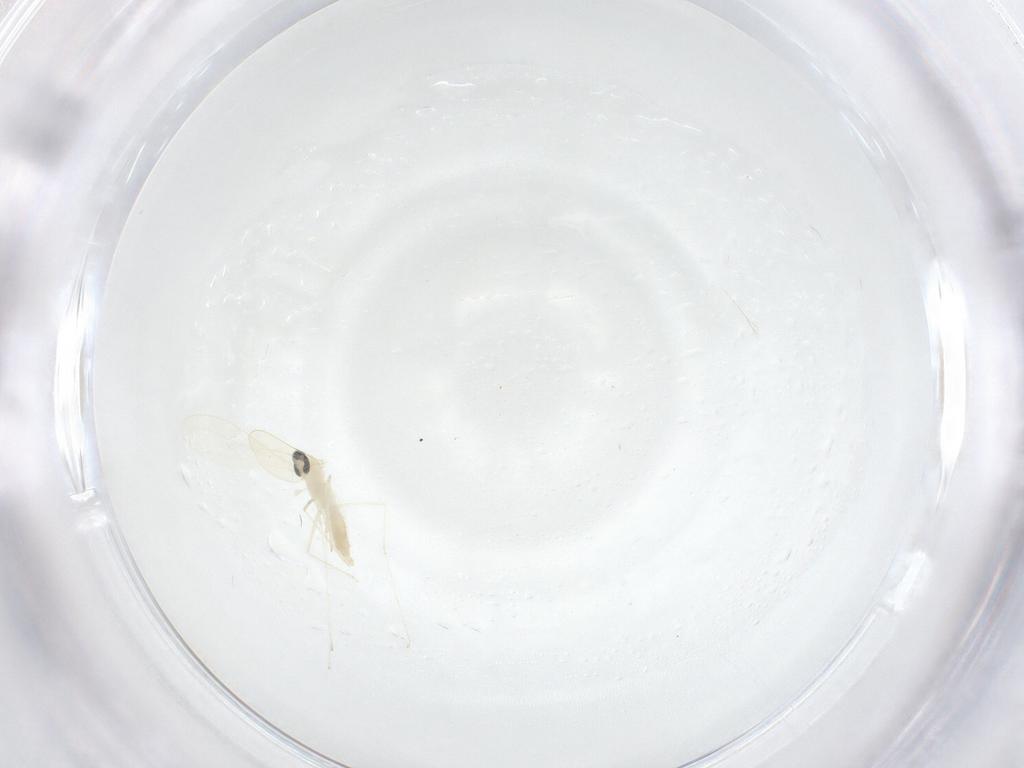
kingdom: Animalia
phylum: Arthropoda
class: Insecta
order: Diptera
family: Cecidomyiidae
